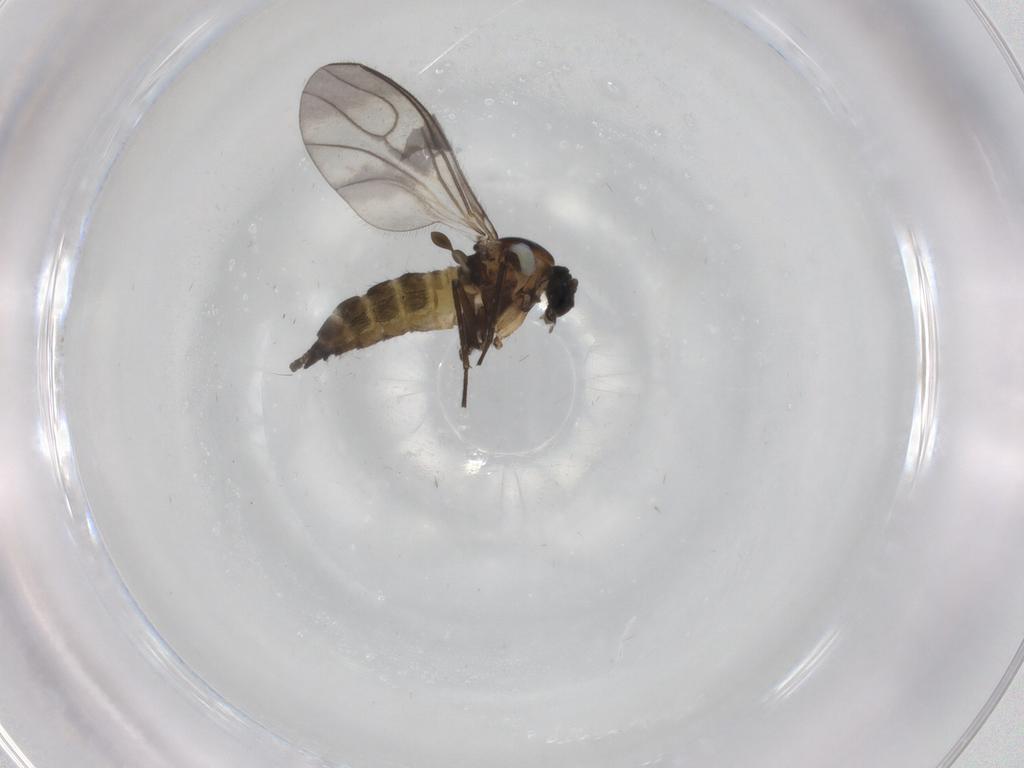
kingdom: Animalia
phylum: Arthropoda
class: Insecta
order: Diptera
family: Sciaridae
